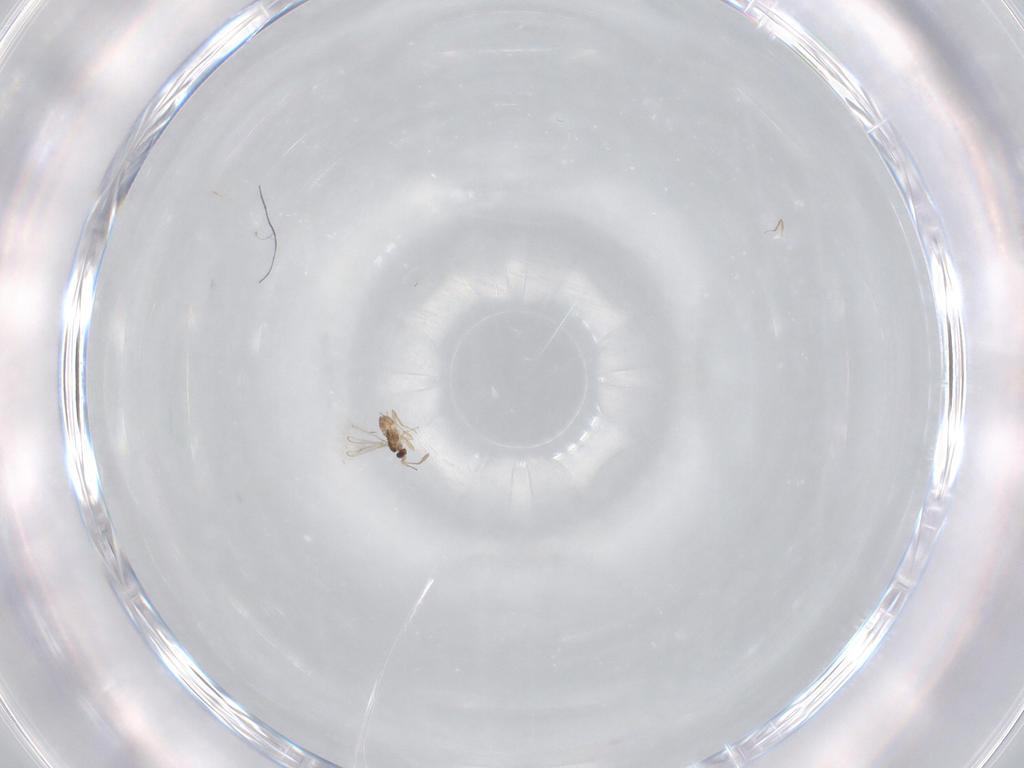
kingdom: Animalia
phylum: Arthropoda
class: Insecta
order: Hymenoptera
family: Mymaridae
